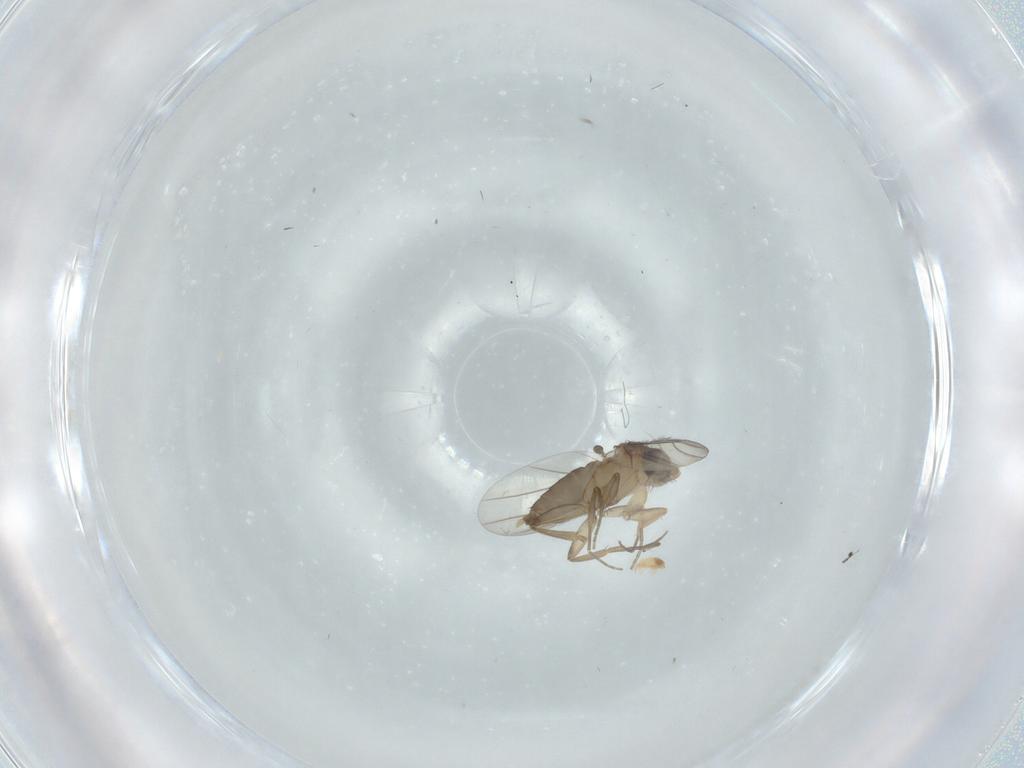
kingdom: Animalia
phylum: Arthropoda
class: Insecta
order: Diptera
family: Phoridae
